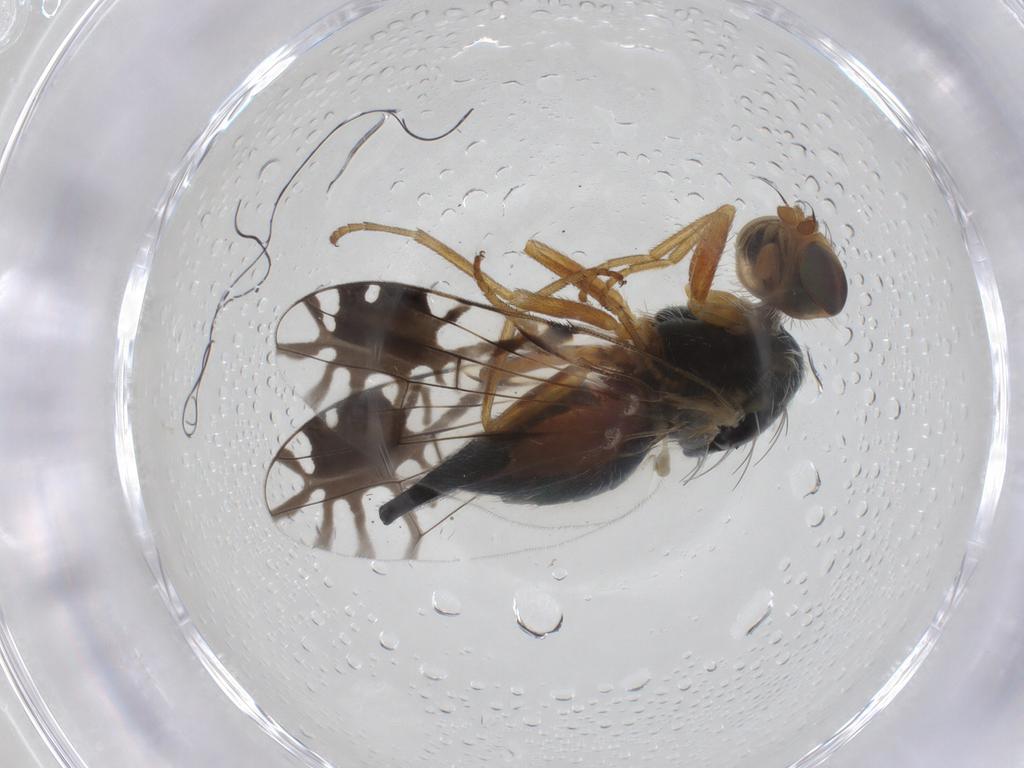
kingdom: Animalia
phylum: Arthropoda
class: Insecta
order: Diptera
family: Tephritidae
